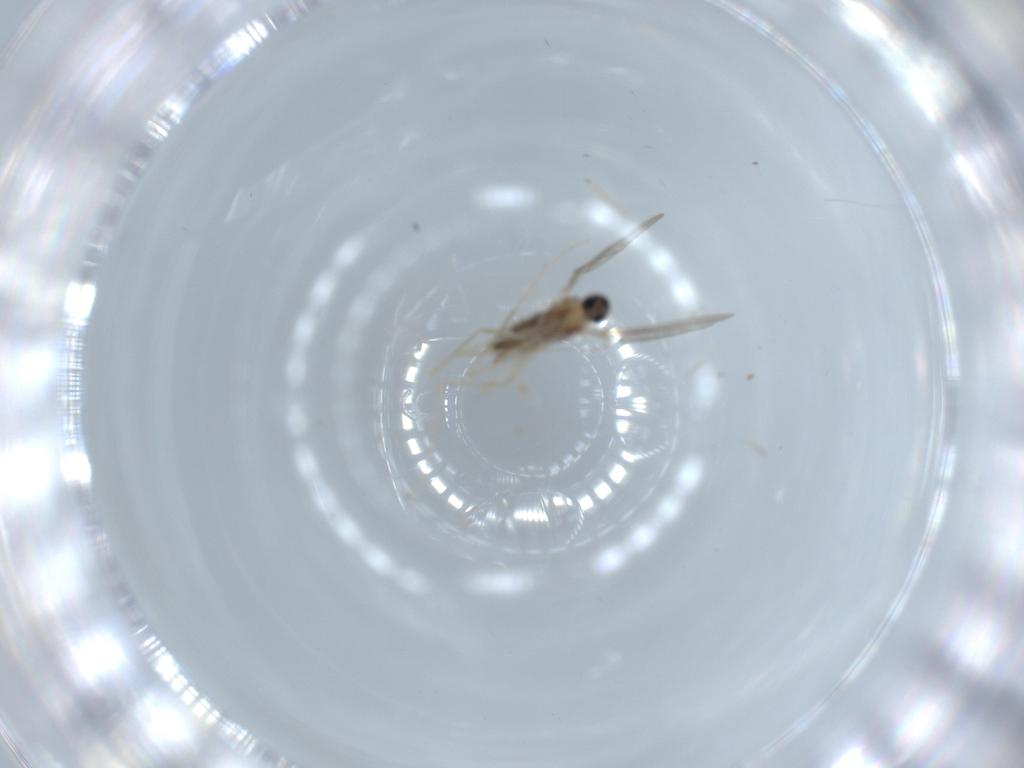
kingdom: Animalia
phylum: Arthropoda
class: Insecta
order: Diptera
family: Chironomidae
